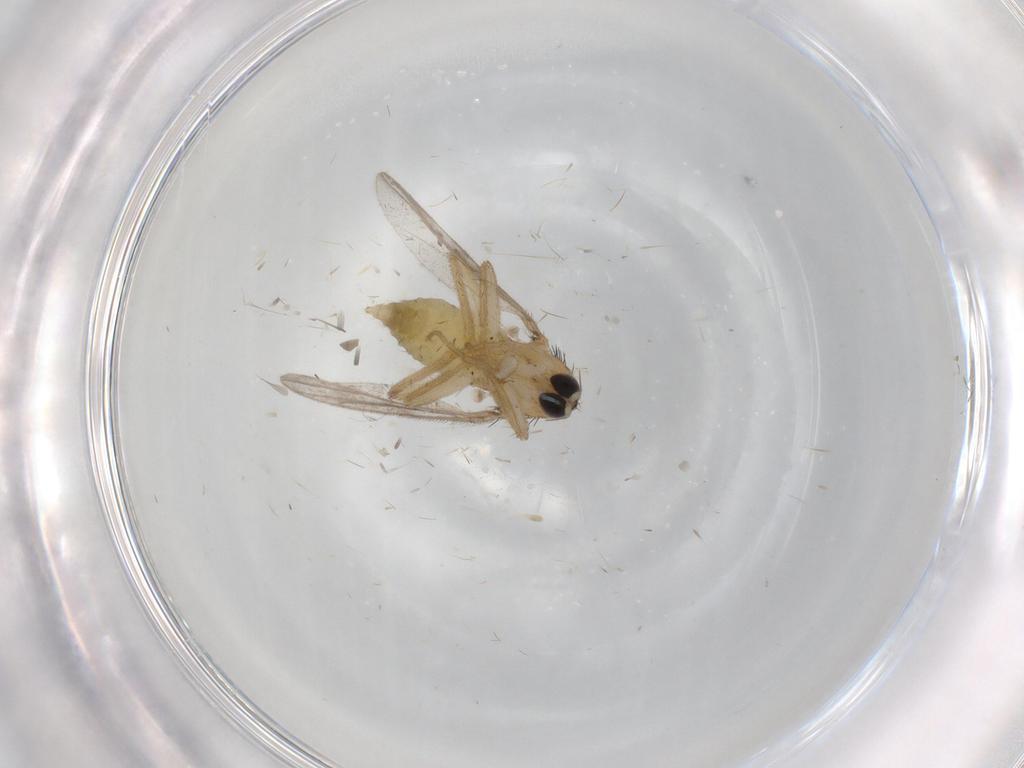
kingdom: Animalia
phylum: Arthropoda
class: Insecta
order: Diptera
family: Hybotidae
